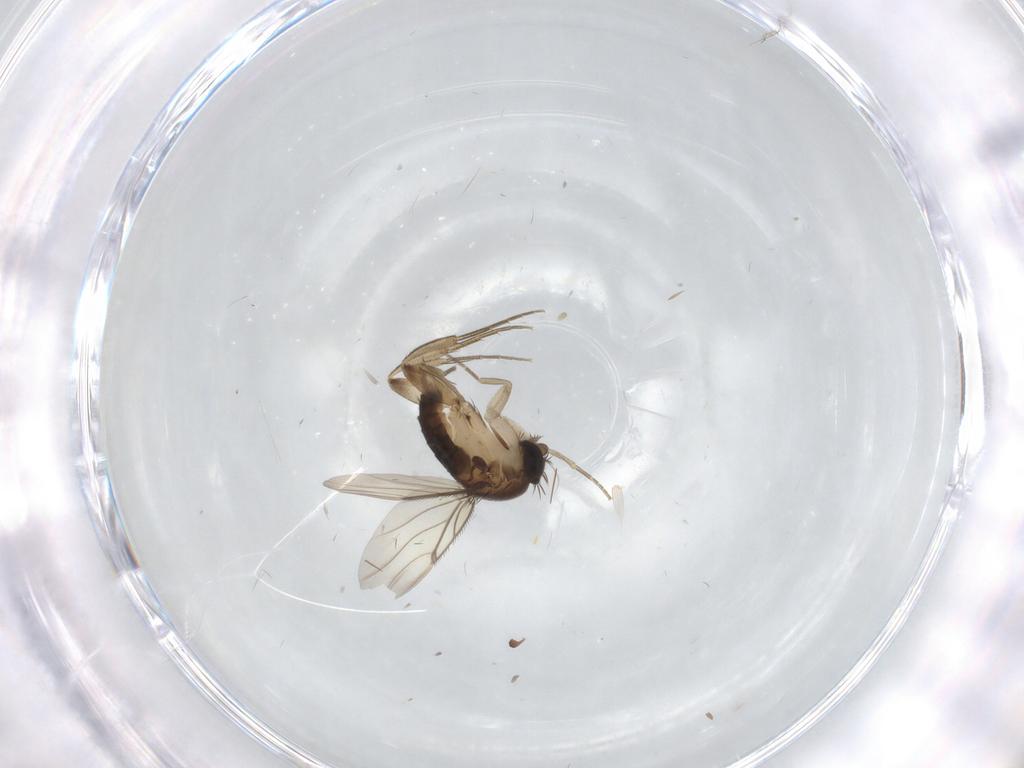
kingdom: Animalia
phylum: Arthropoda
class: Insecta
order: Diptera
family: Phoridae
